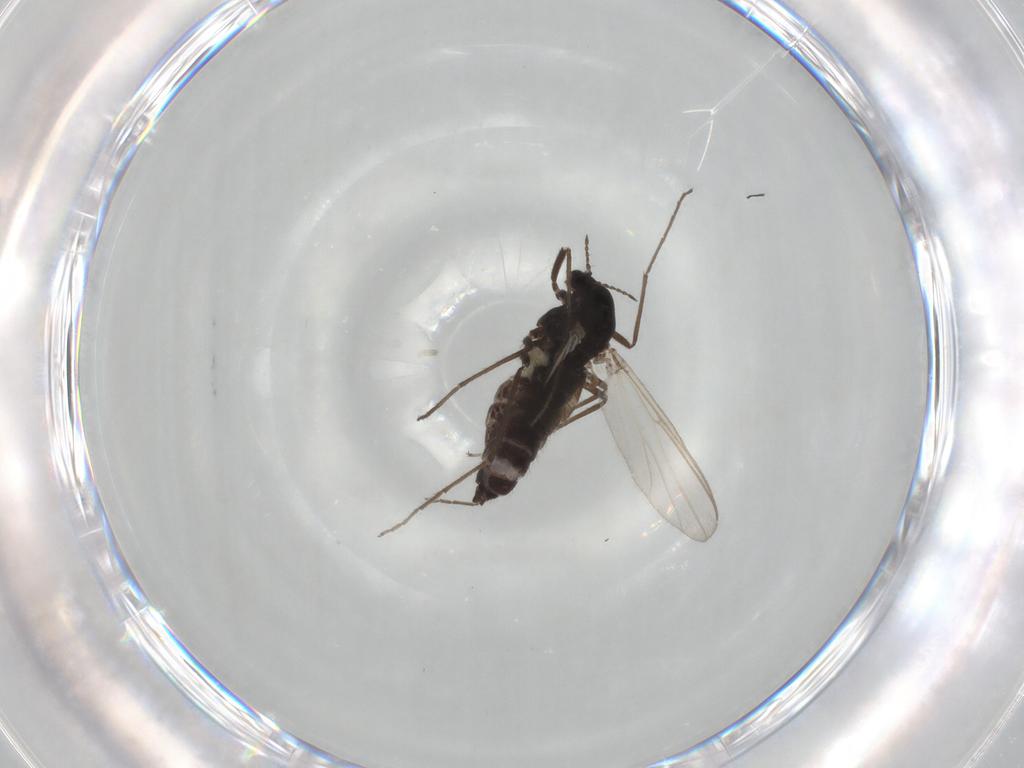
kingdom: Animalia
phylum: Arthropoda
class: Insecta
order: Diptera
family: Chironomidae
